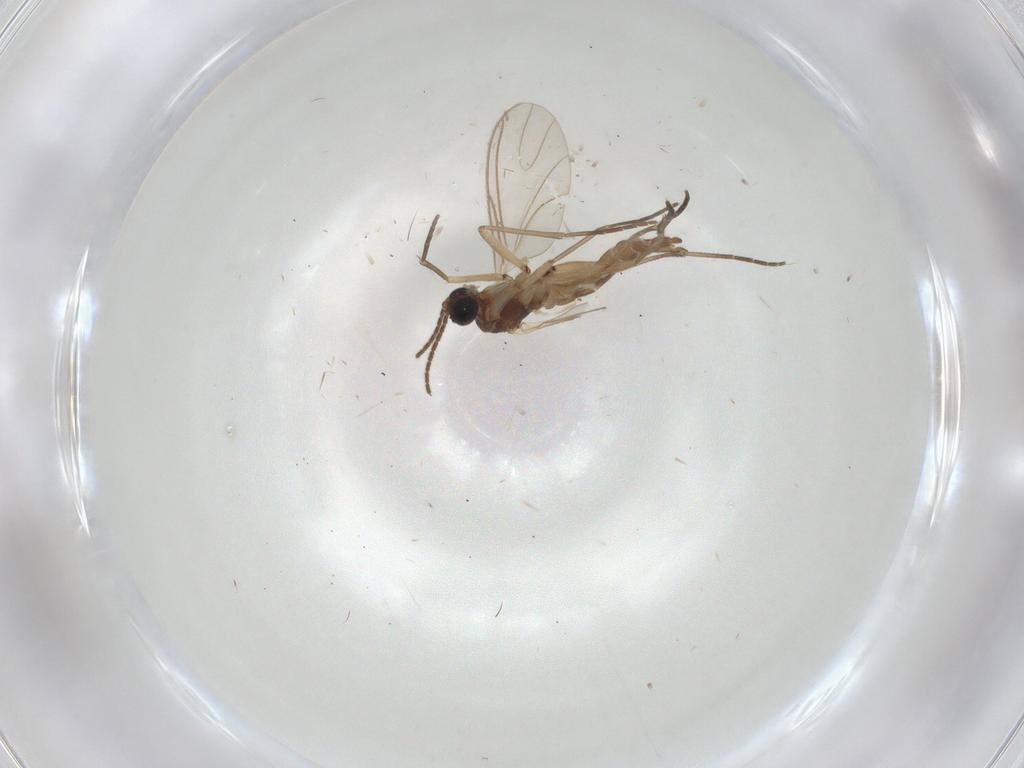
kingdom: Animalia
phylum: Arthropoda
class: Insecta
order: Diptera
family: Sciaridae
